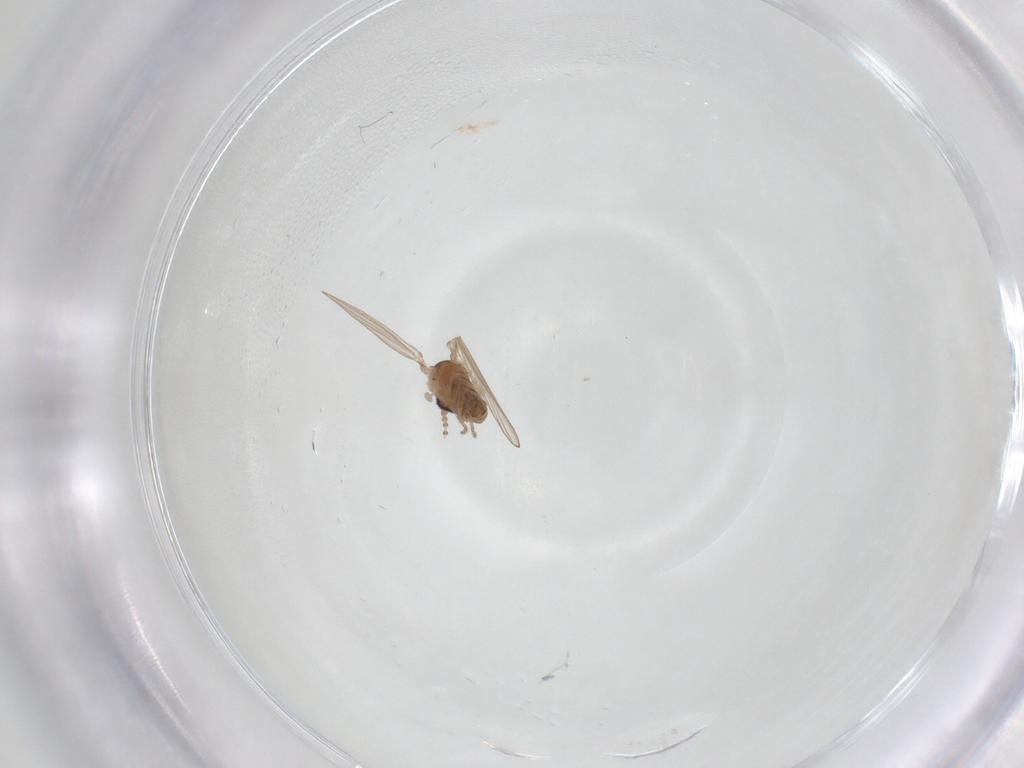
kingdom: Animalia
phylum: Arthropoda
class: Insecta
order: Diptera
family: Psychodidae
